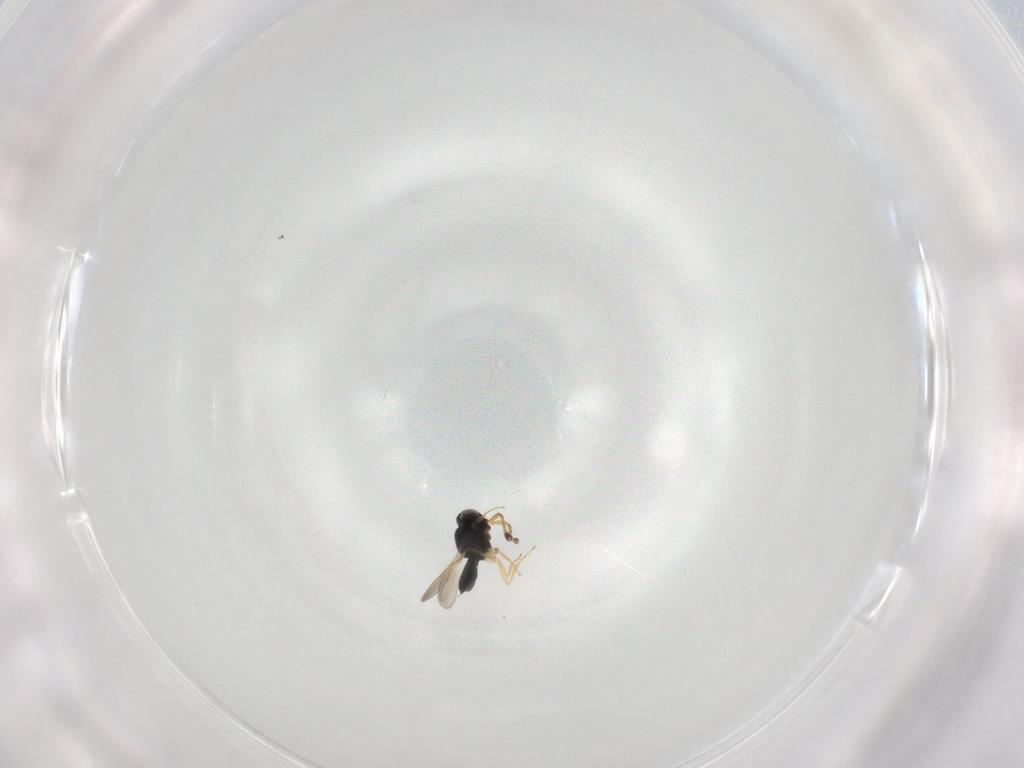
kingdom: Animalia
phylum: Arthropoda
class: Insecta
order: Hymenoptera
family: Scelionidae
